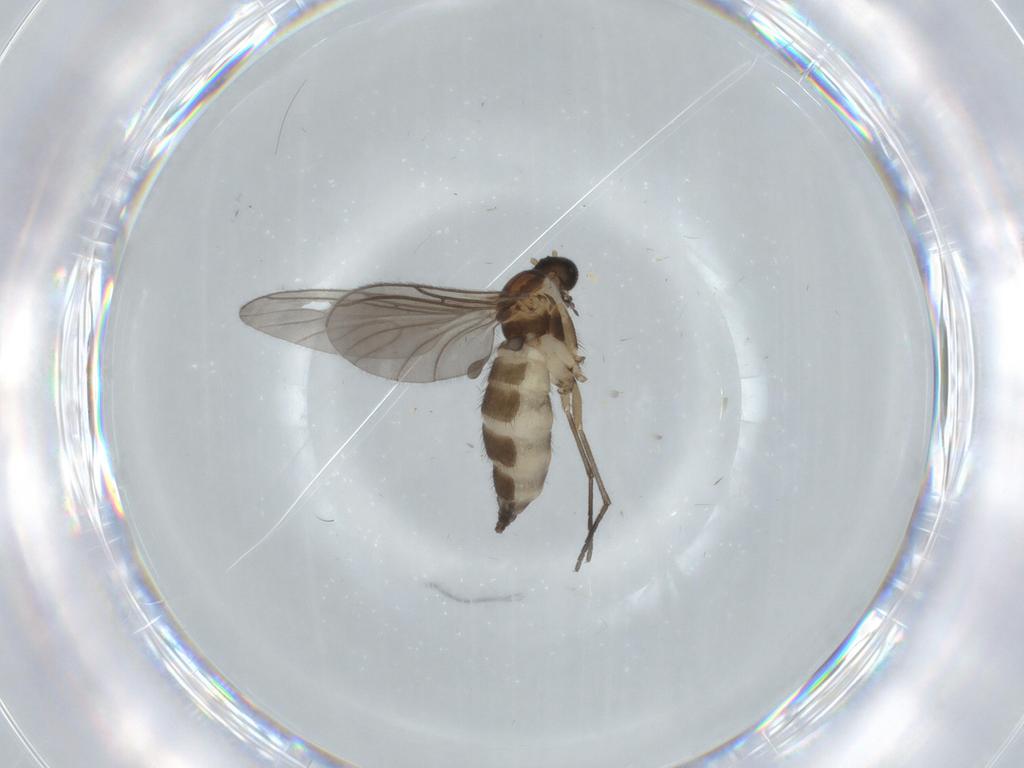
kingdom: Animalia
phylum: Arthropoda
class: Insecta
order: Diptera
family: Sciaridae
